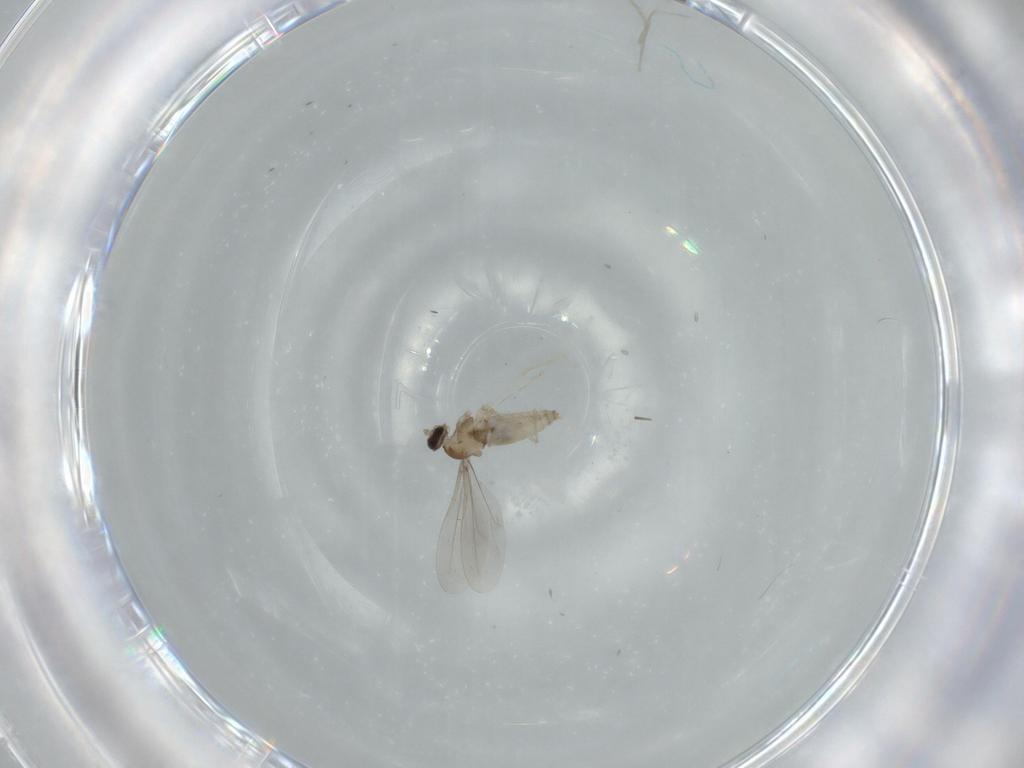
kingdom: Animalia
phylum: Arthropoda
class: Insecta
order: Diptera
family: Cecidomyiidae
